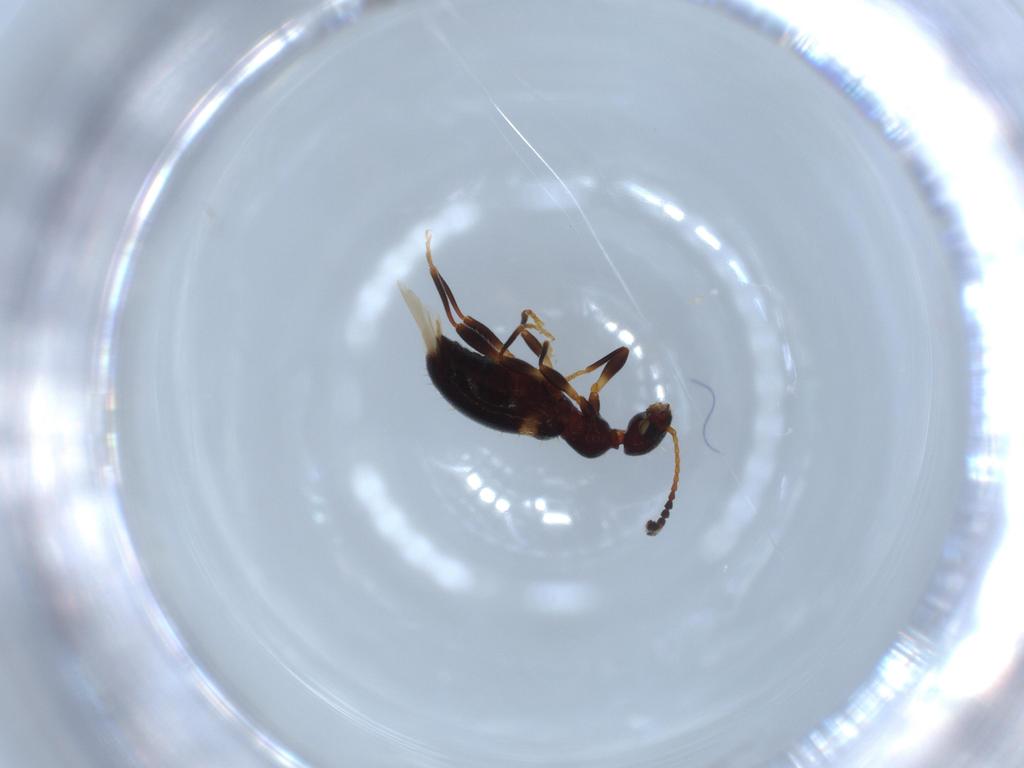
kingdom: Animalia
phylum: Arthropoda
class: Insecta
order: Coleoptera
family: Anthicidae
